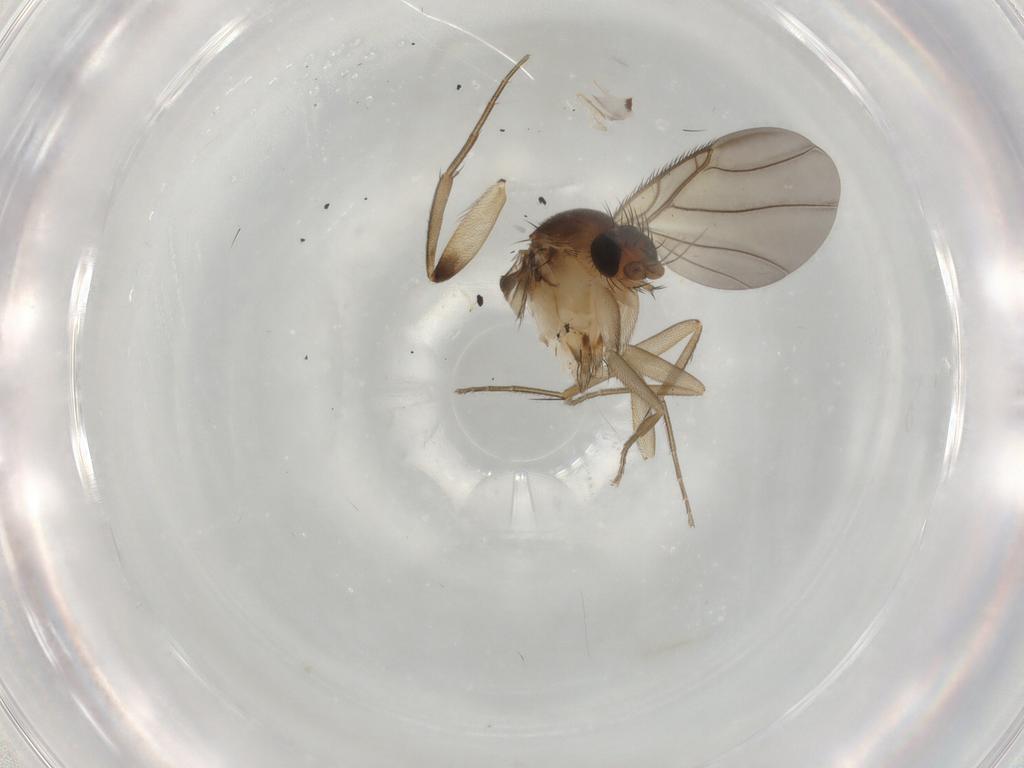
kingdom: Animalia
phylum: Arthropoda
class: Insecta
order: Diptera
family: Phoridae
